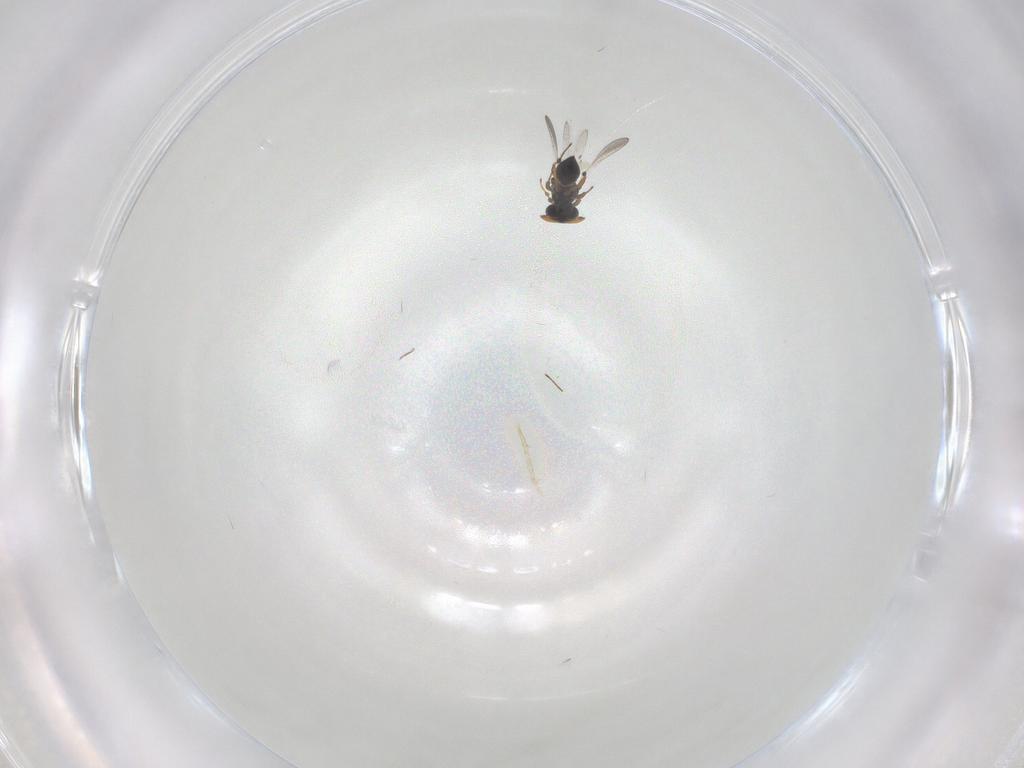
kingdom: Animalia
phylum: Arthropoda
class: Insecta
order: Hymenoptera
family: Platygastridae
